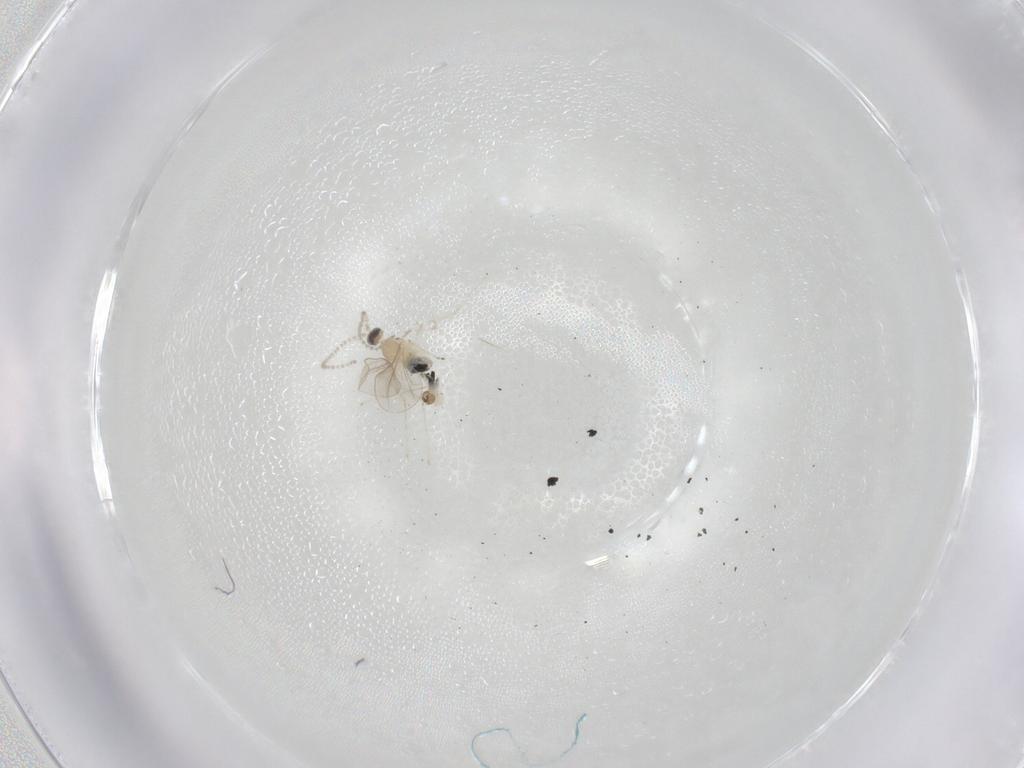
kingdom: Animalia
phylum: Arthropoda
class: Insecta
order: Diptera
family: Cecidomyiidae
